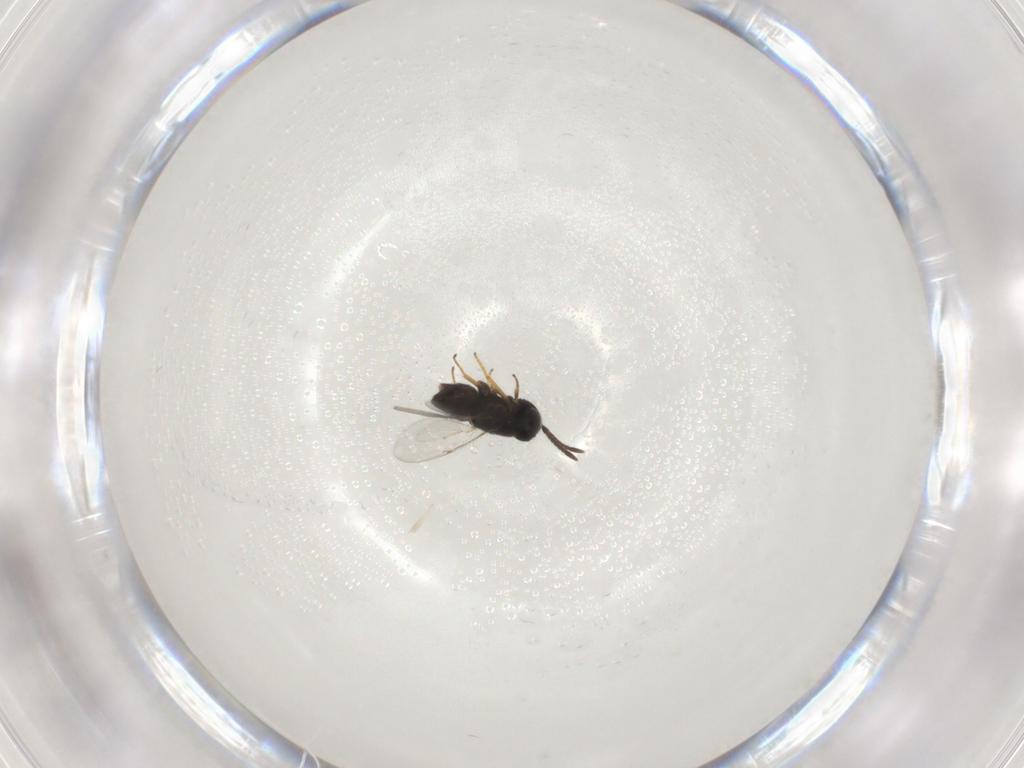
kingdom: Animalia
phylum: Arthropoda
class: Insecta
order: Hymenoptera
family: Encyrtidae
